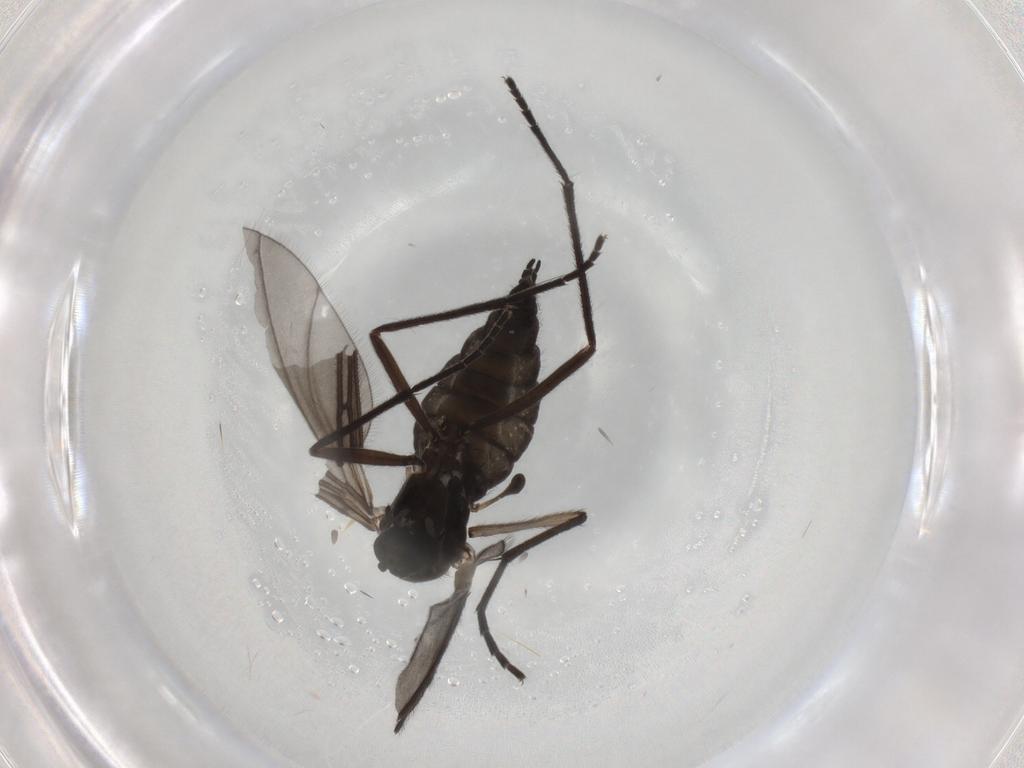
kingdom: Animalia
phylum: Arthropoda
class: Insecta
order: Diptera
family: Sciaridae
